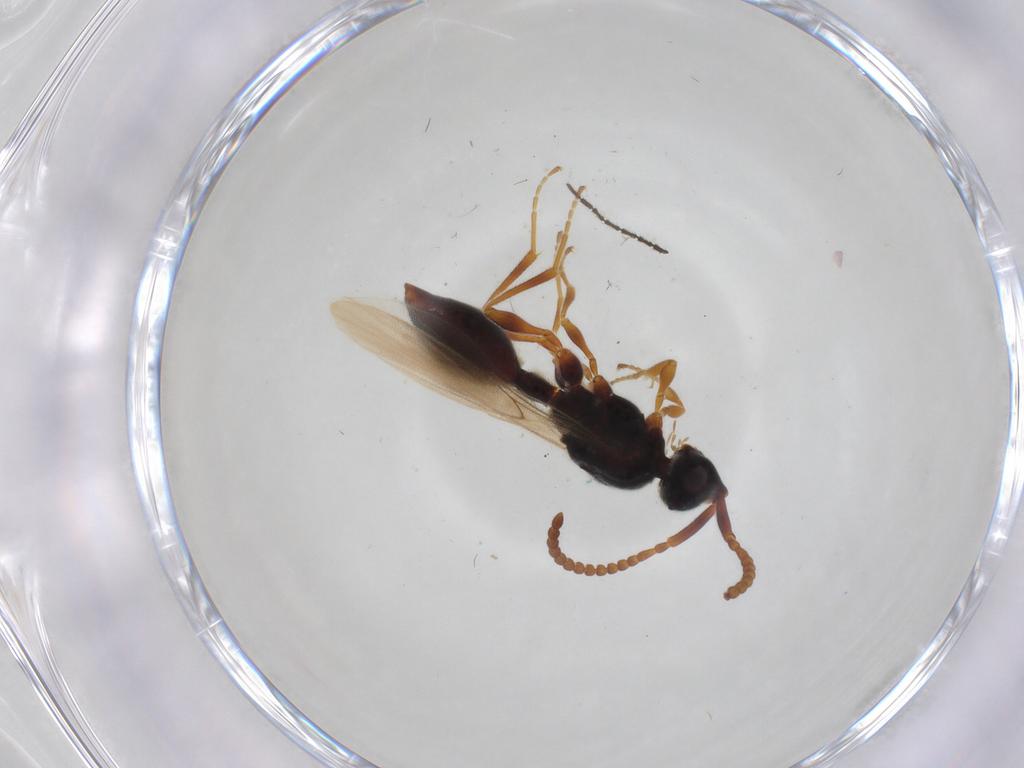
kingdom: Animalia
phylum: Arthropoda
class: Insecta
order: Hymenoptera
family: Diapriidae
